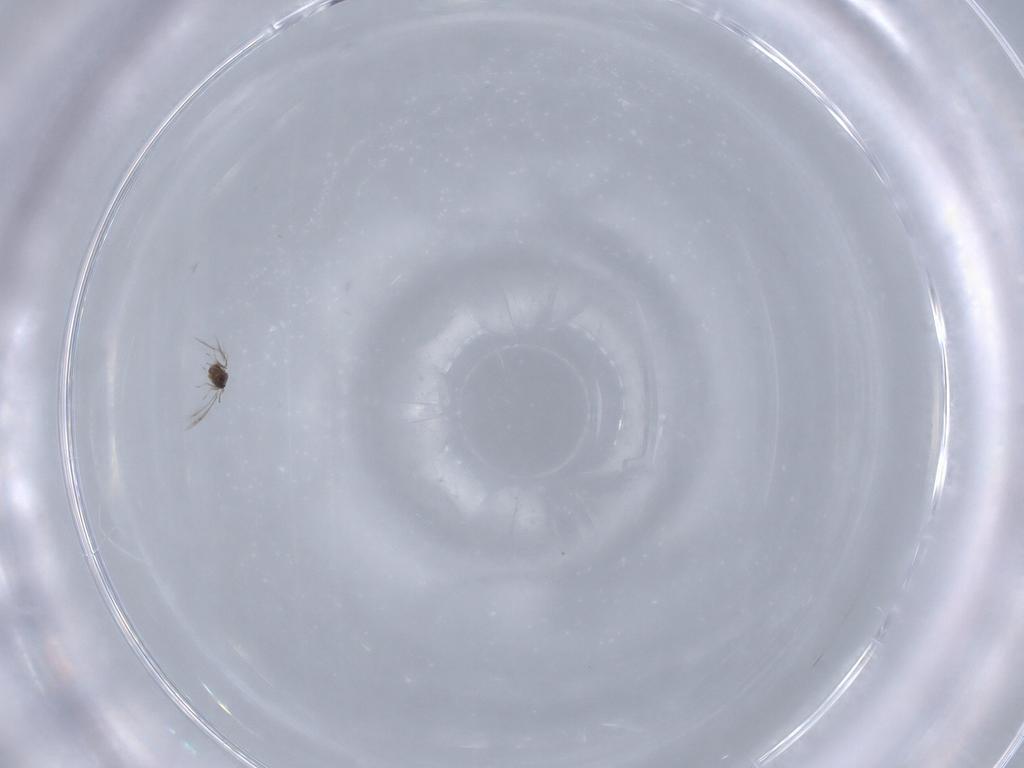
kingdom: Animalia
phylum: Arthropoda
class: Insecta
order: Hymenoptera
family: Mymaridae
